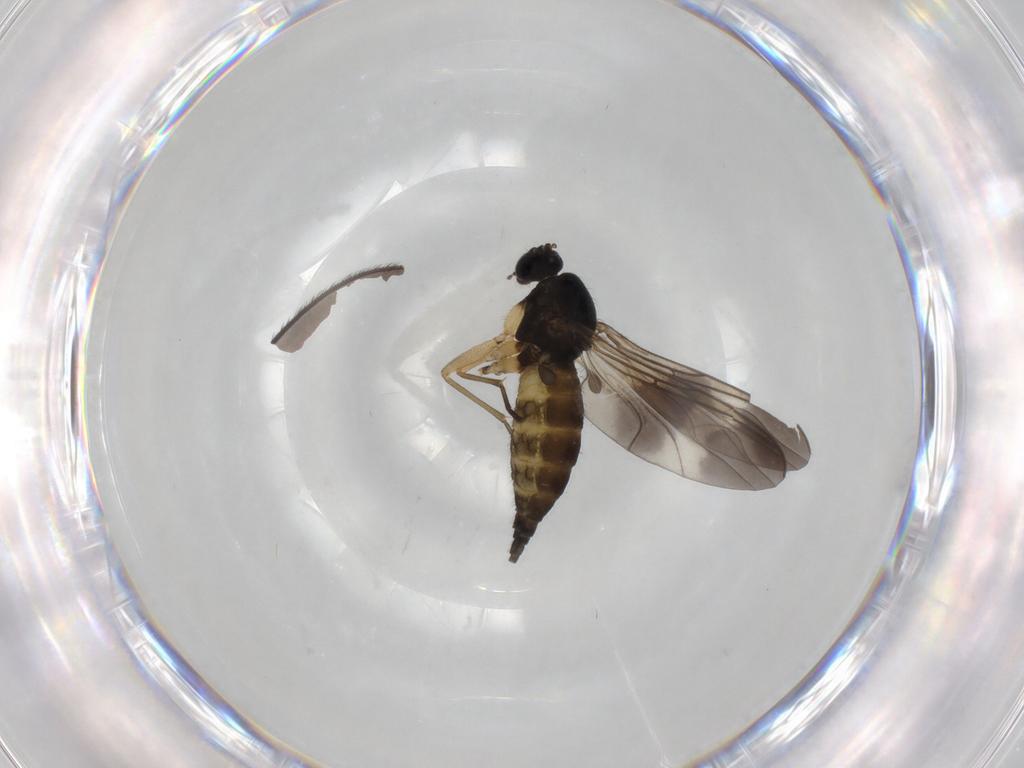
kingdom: Animalia
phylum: Arthropoda
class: Insecta
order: Diptera
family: Sciaridae
